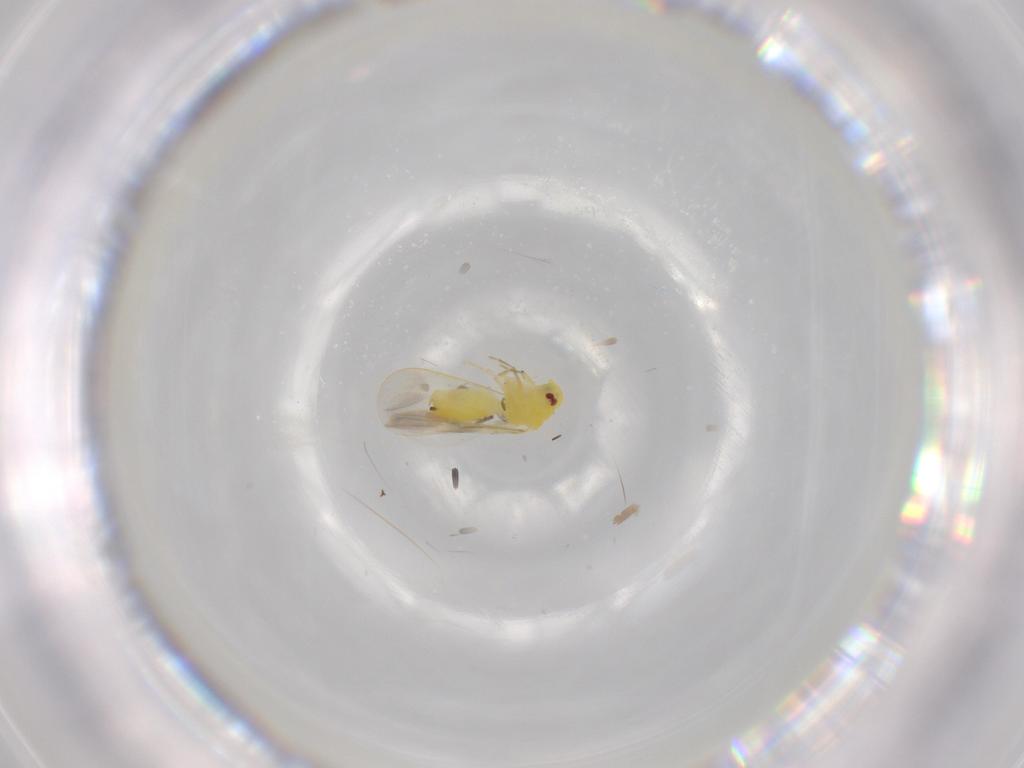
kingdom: Animalia
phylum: Arthropoda
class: Insecta
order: Hemiptera
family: Aleyrodidae
